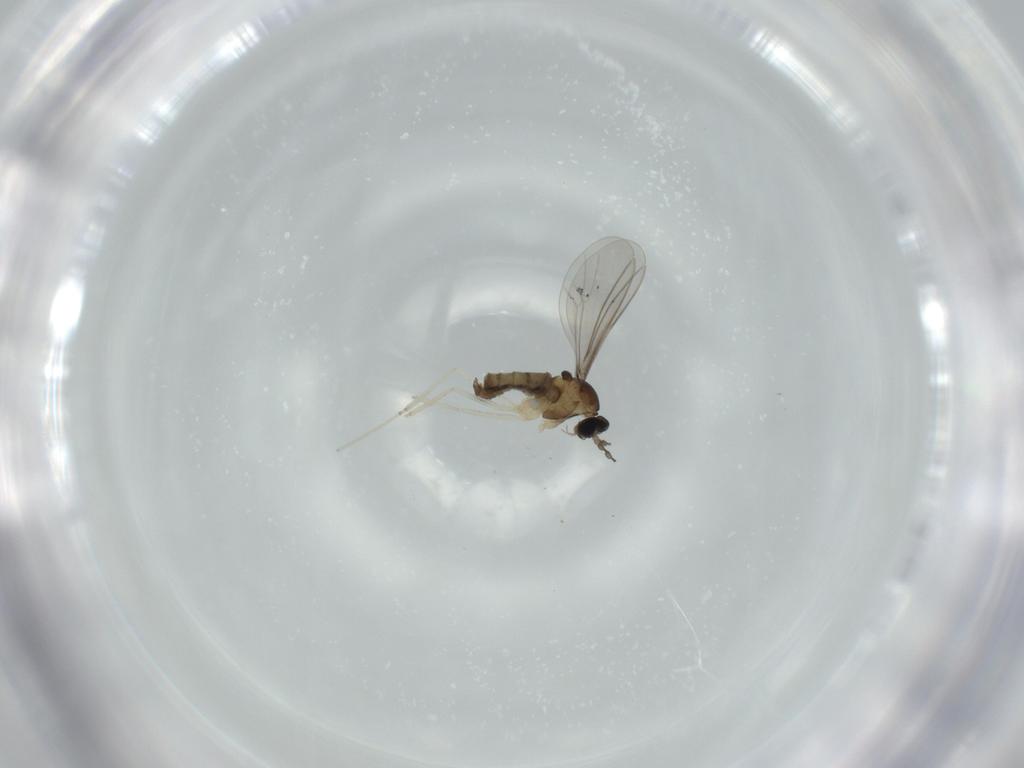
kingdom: Animalia
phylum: Arthropoda
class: Insecta
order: Diptera
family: Cecidomyiidae
